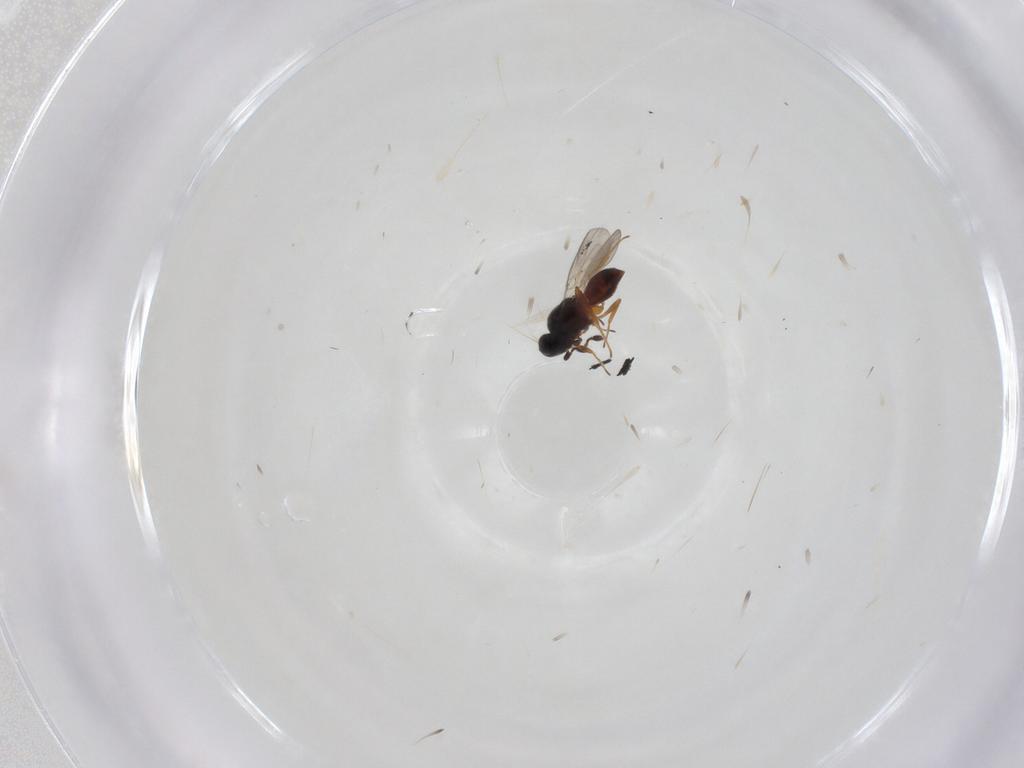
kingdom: Animalia
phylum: Arthropoda
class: Insecta
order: Hymenoptera
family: Platygastridae
